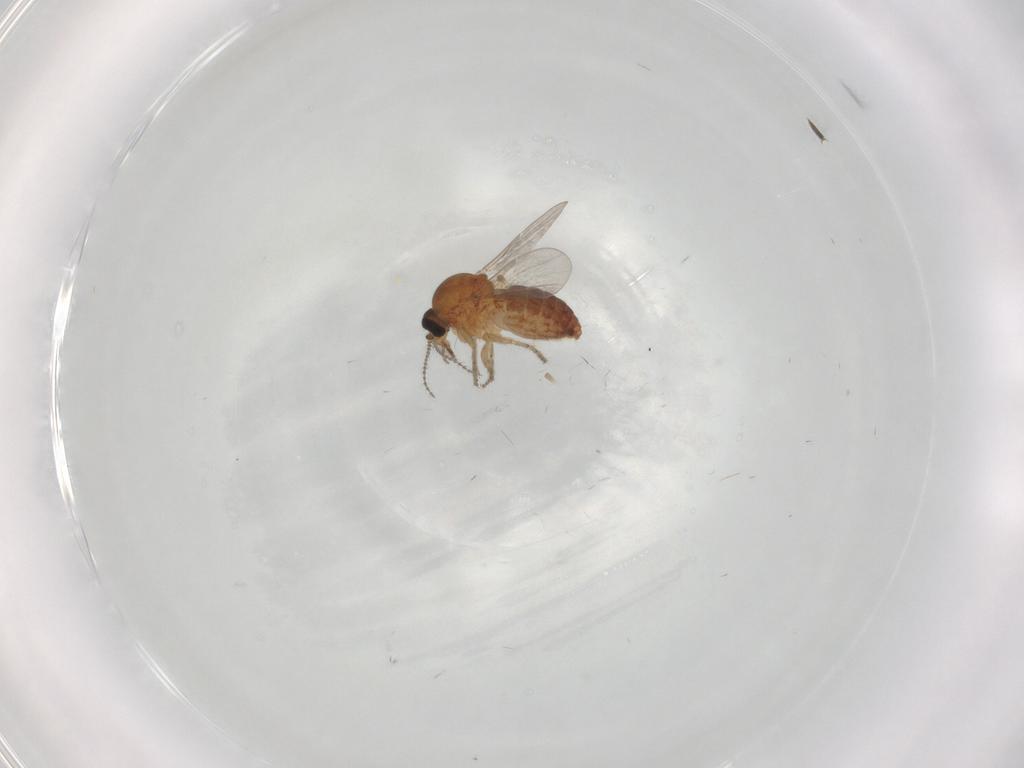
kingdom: Animalia
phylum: Arthropoda
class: Insecta
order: Diptera
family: Ceratopogonidae
